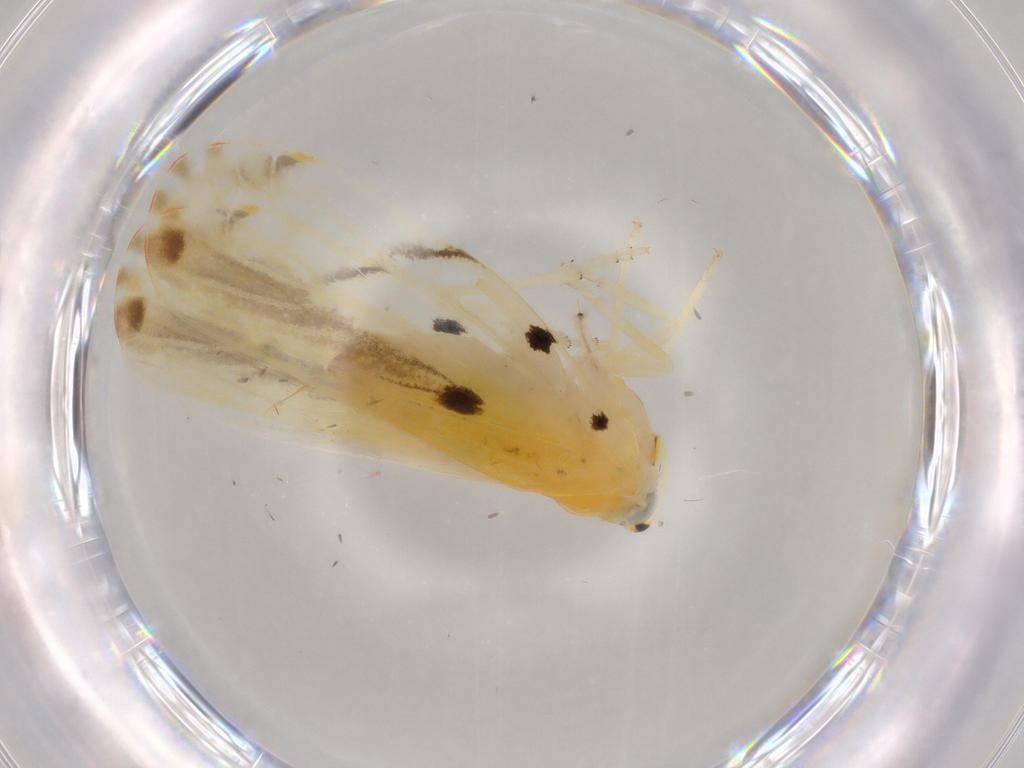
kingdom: Animalia
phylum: Arthropoda
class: Insecta
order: Hemiptera
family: Derbidae
